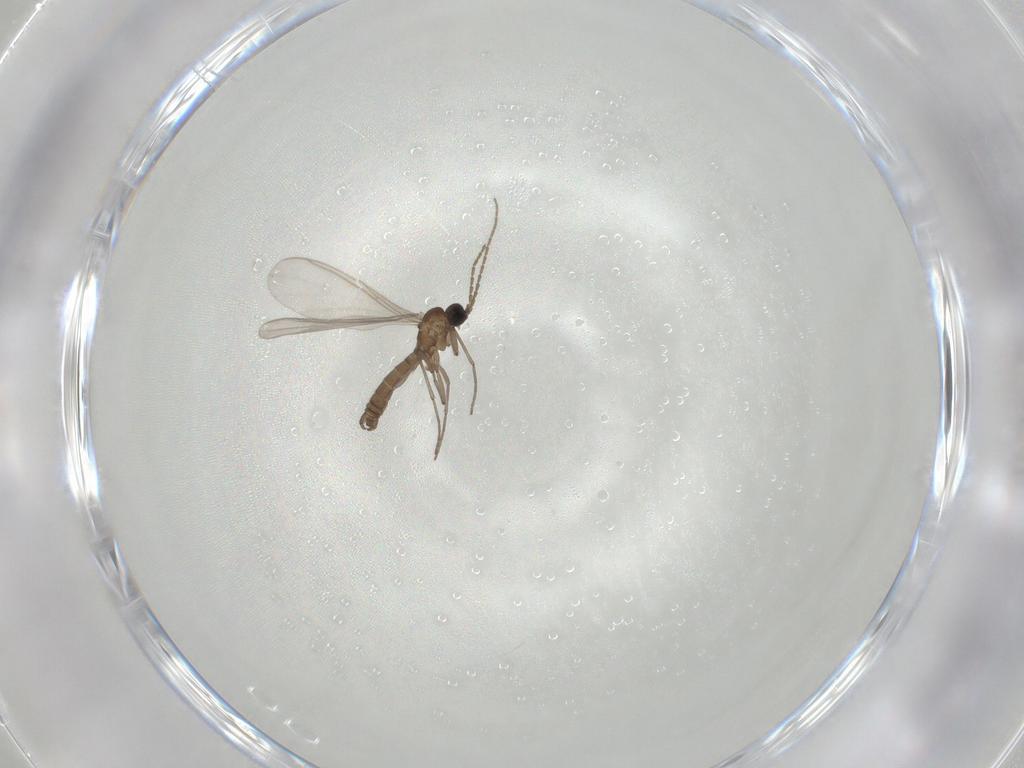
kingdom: Animalia
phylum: Arthropoda
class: Insecta
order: Diptera
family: Sciaridae
